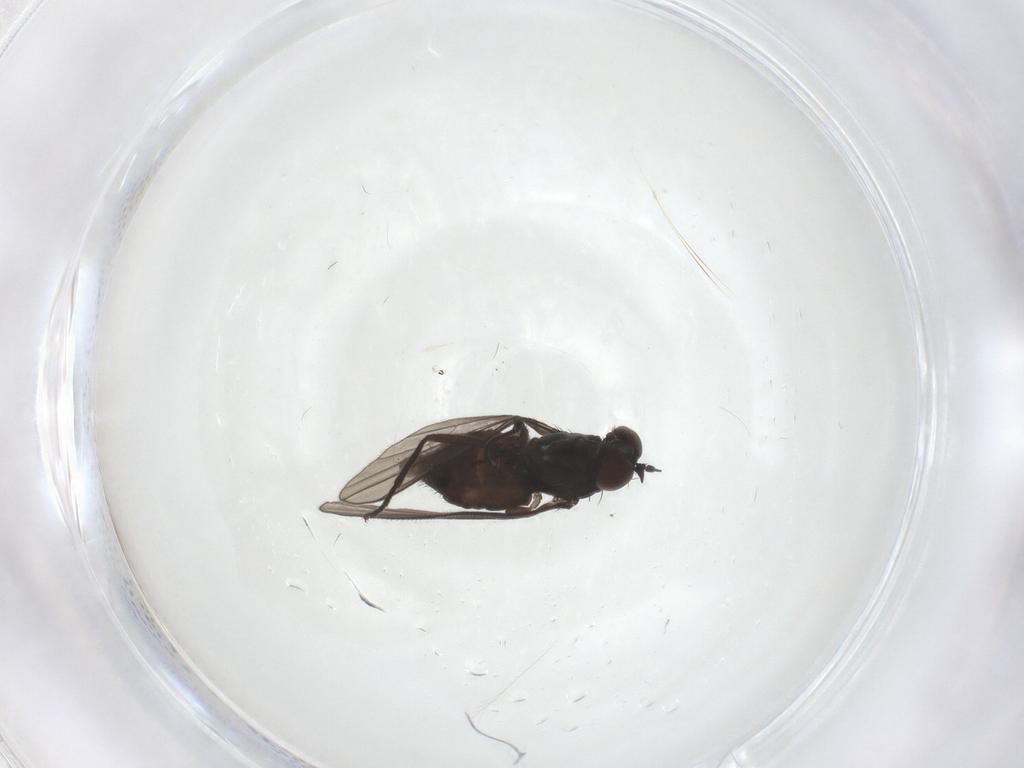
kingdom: Animalia
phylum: Arthropoda
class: Insecta
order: Diptera
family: Dolichopodidae
